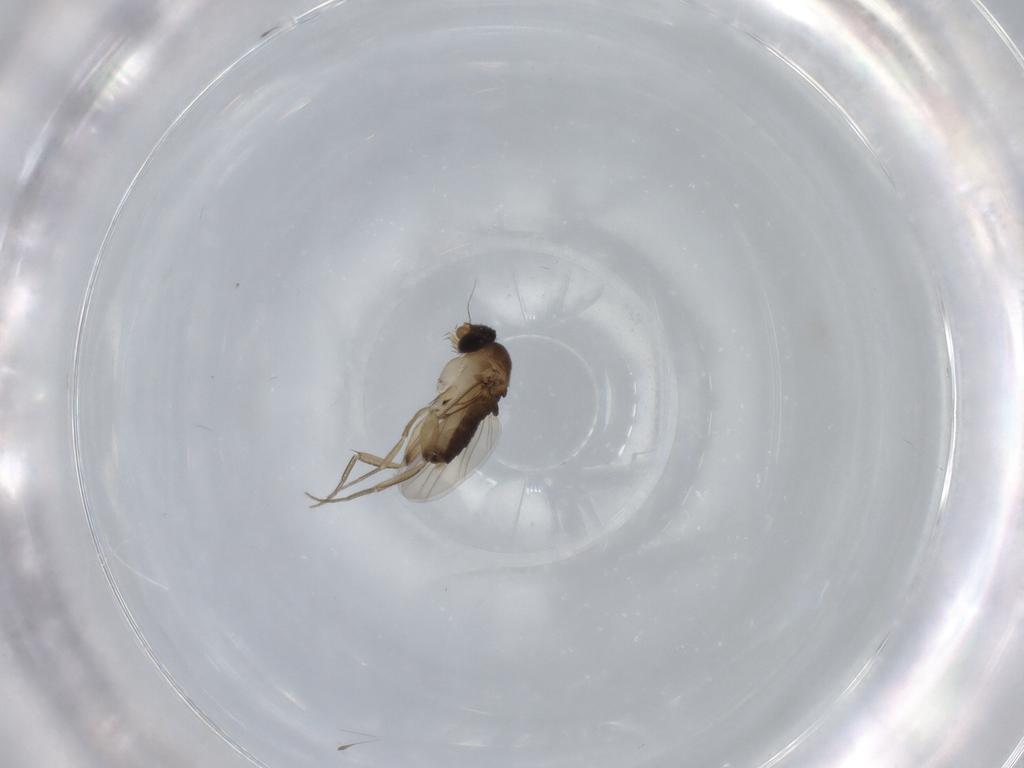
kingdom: Animalia
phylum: Arthropoda
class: Insecta
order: Diptera
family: Phoridae
